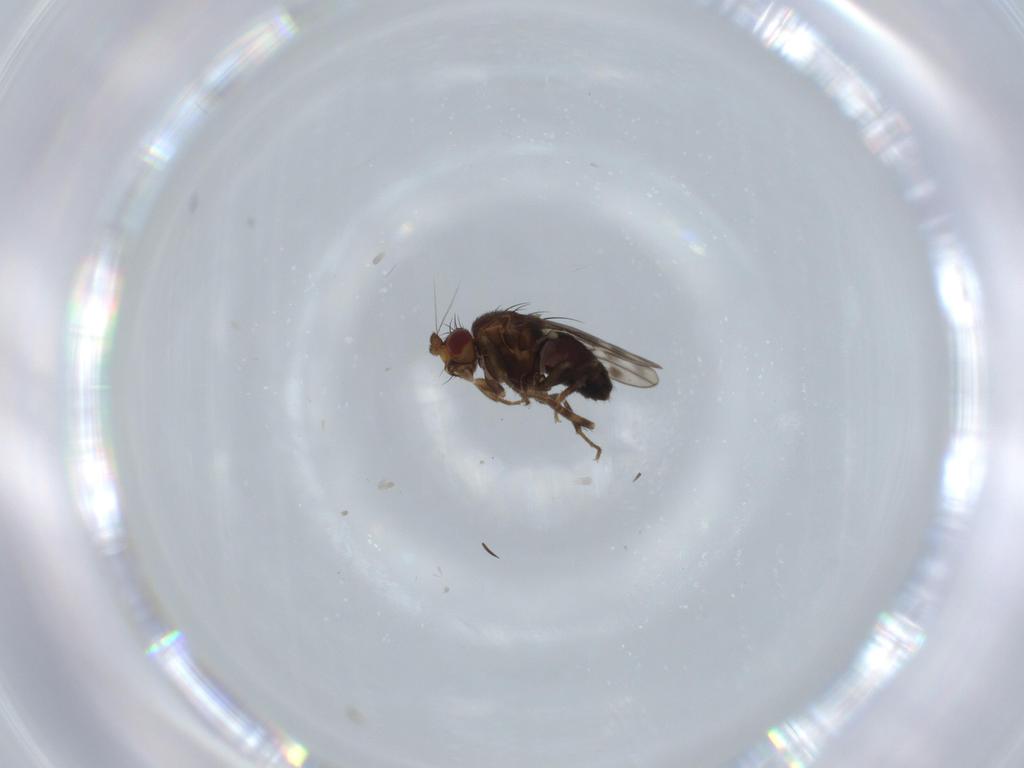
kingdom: Animalia
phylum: Arthropoda
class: Insecta
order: Diptera
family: Sphaeroceridae
